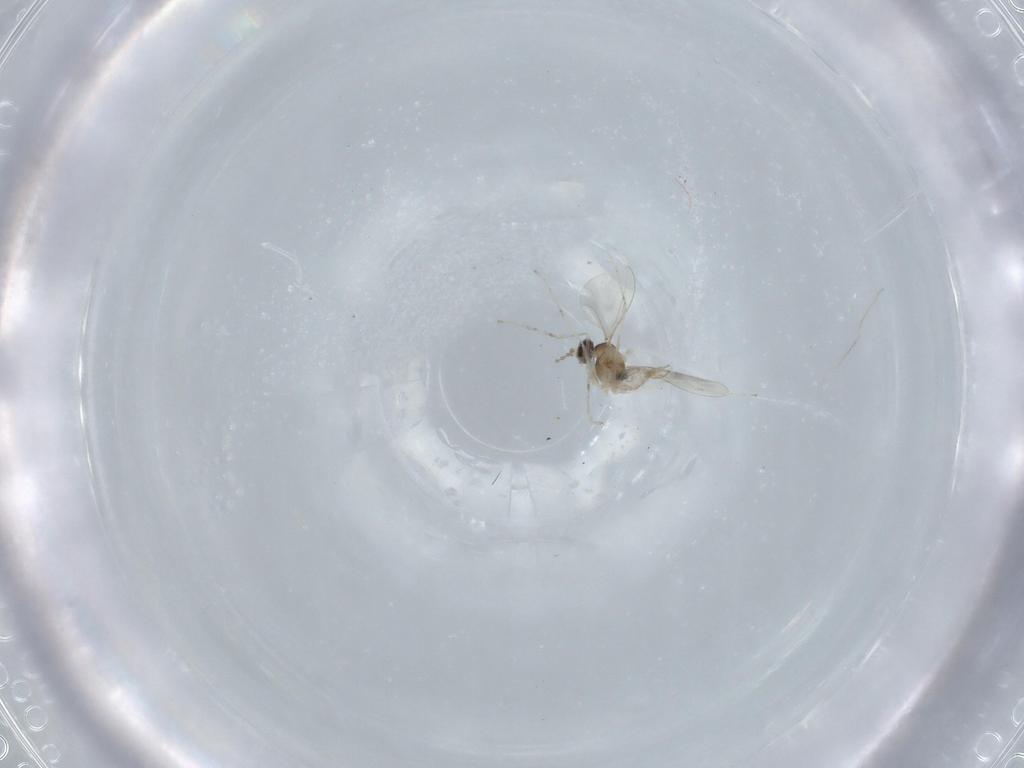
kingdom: Animalia
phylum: Arthropoda
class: Insecta
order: Diptera
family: Cecidomyiidae
